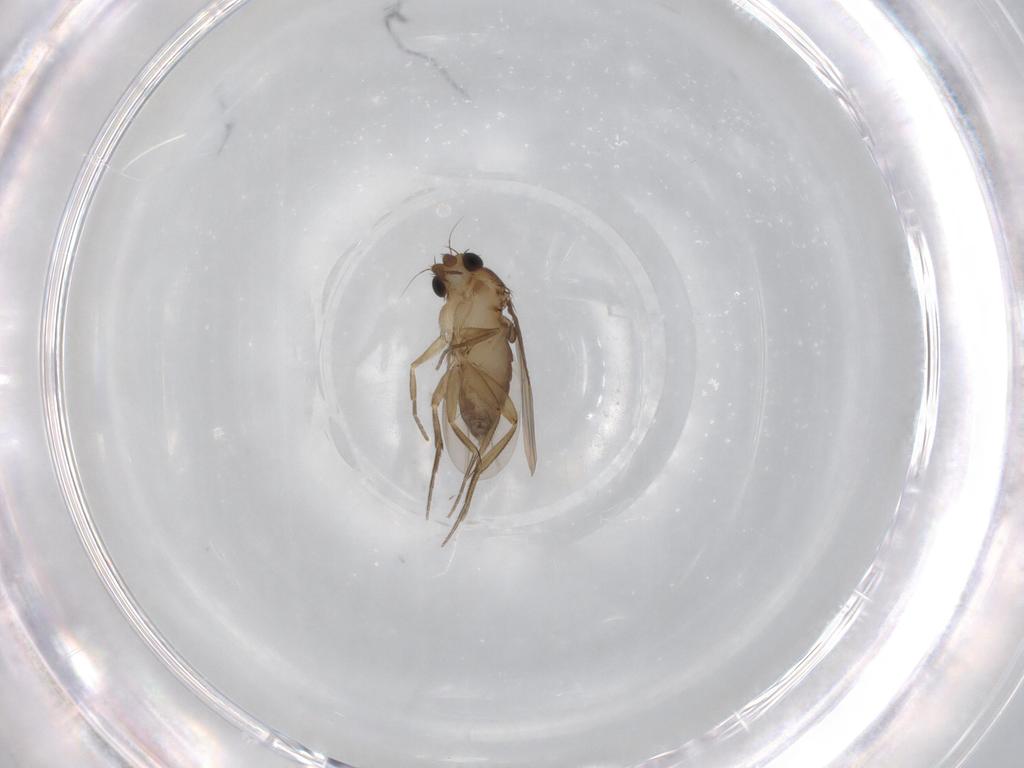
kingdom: Animalia
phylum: Arthropoda
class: Insecta
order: Diptera
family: Phoridae
